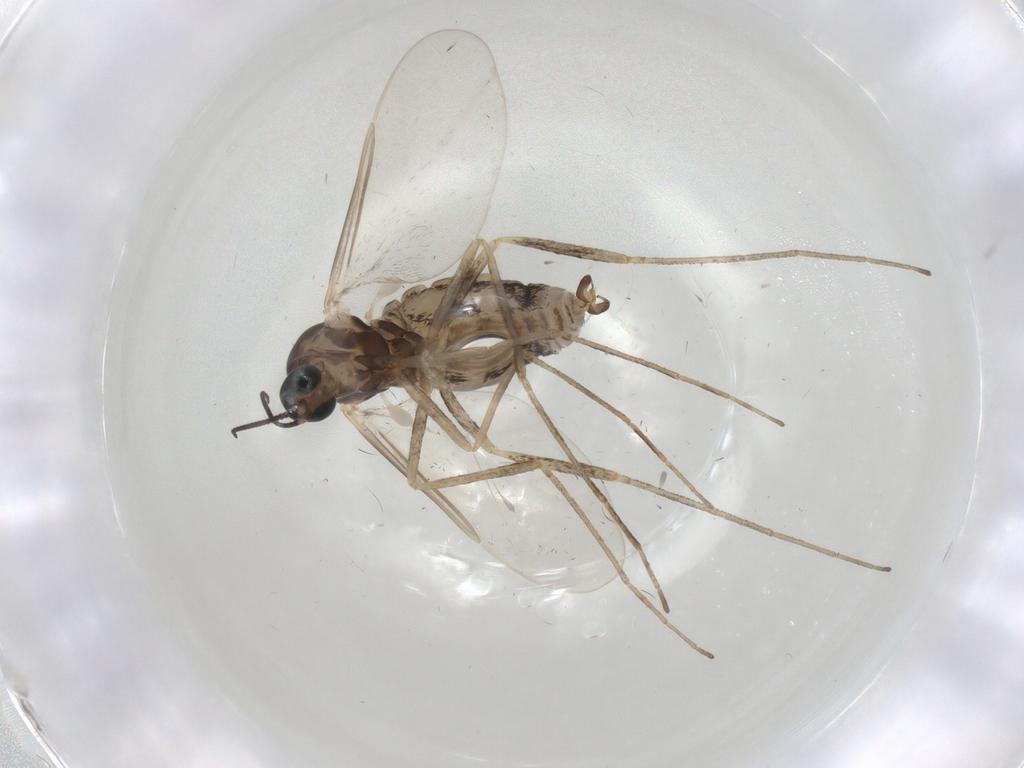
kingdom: Animalia
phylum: Arthropoda
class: Insecta
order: Diptera
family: Cecidomyiidae
